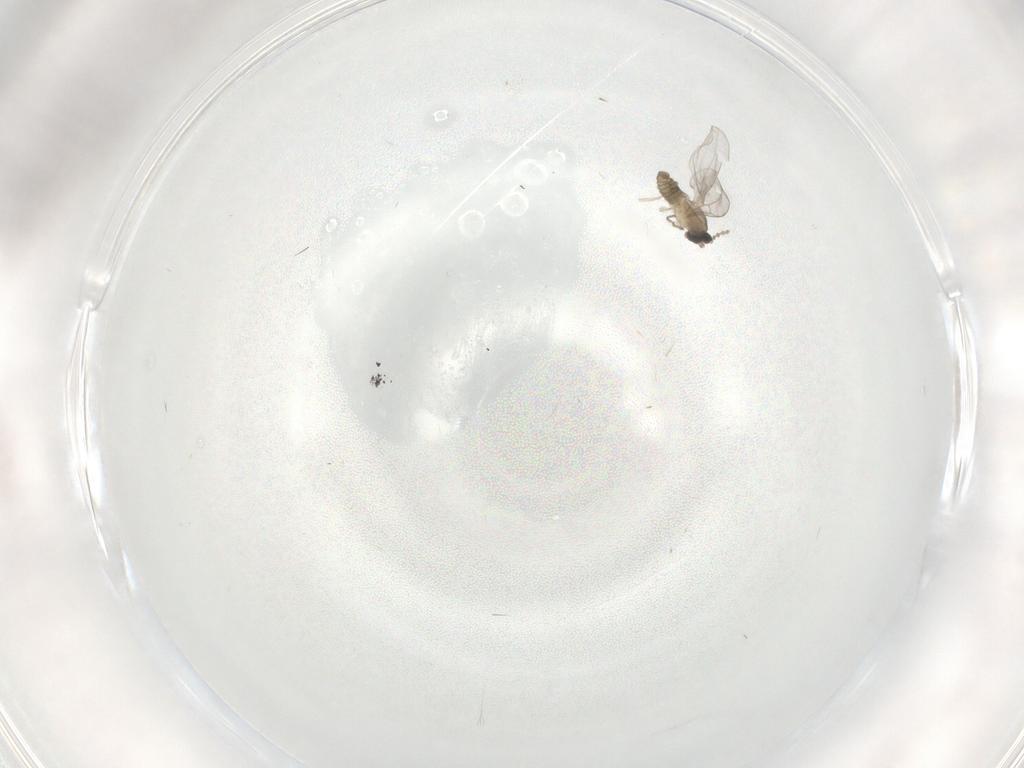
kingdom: Animalia
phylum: Arthropoda
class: Insecta
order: Diptera
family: Cecidomyiidae
